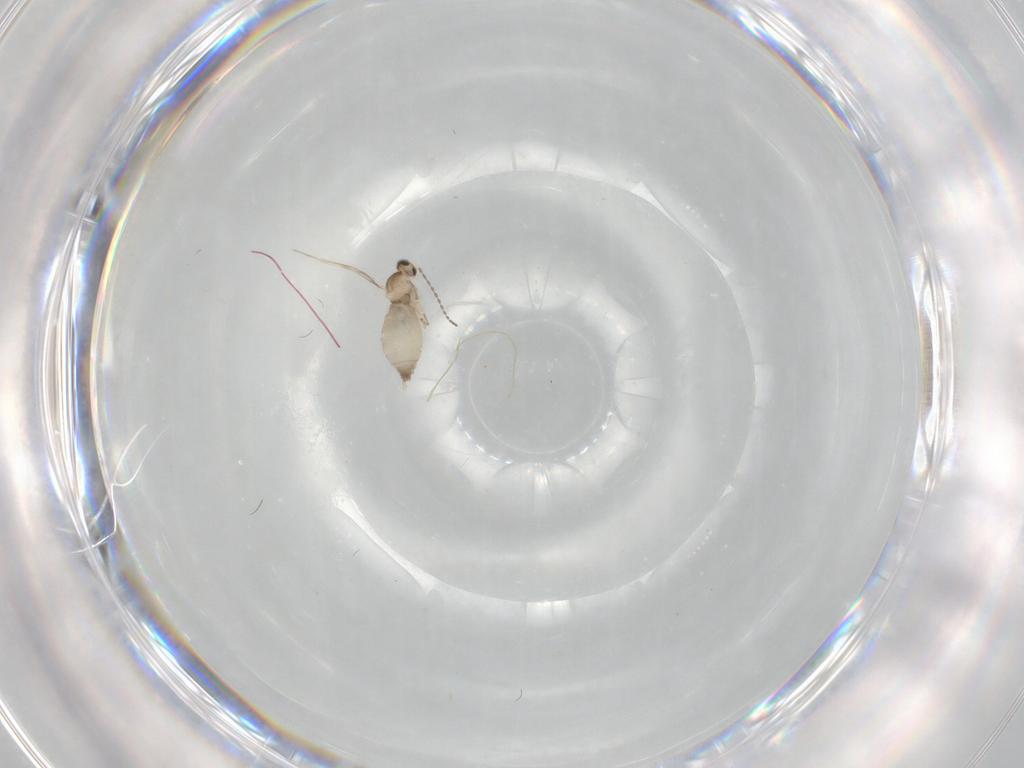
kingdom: Animalia
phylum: Arthropoda
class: Insecta
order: Diptera
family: Cecidomyiidae
